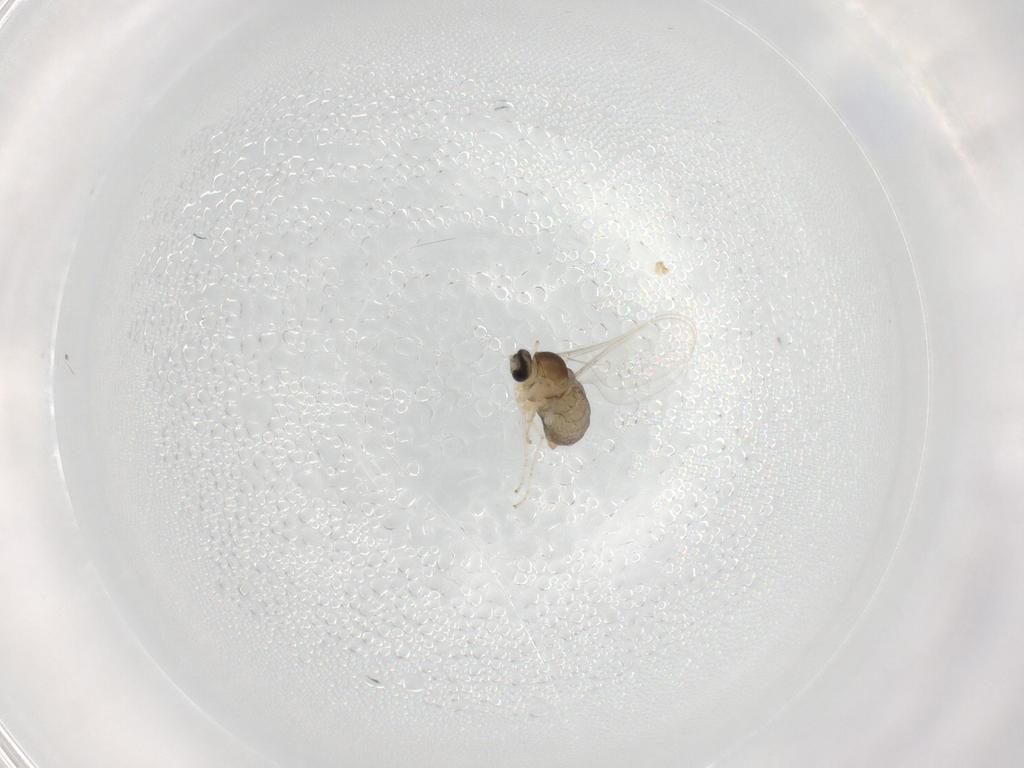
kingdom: Animalia
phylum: Arthropoda
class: Insecta
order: Diptera
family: Cecidomyiidae
